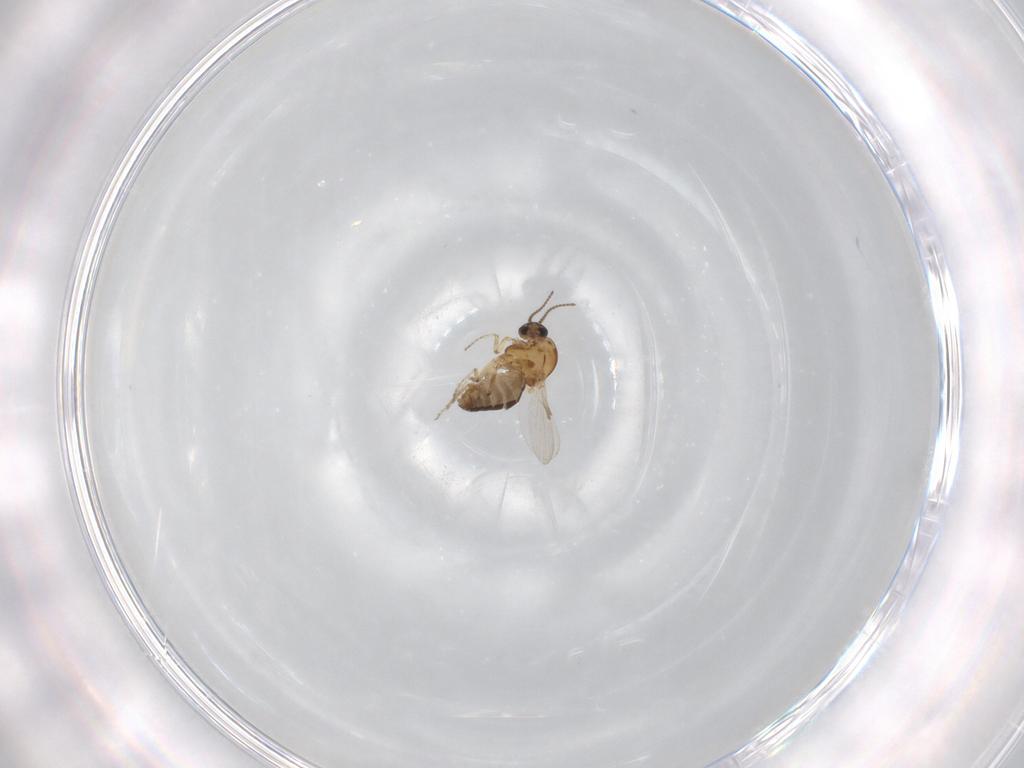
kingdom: Animalia
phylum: Arthropoda
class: Insecta
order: Diptera
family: Ceratopogonidae
